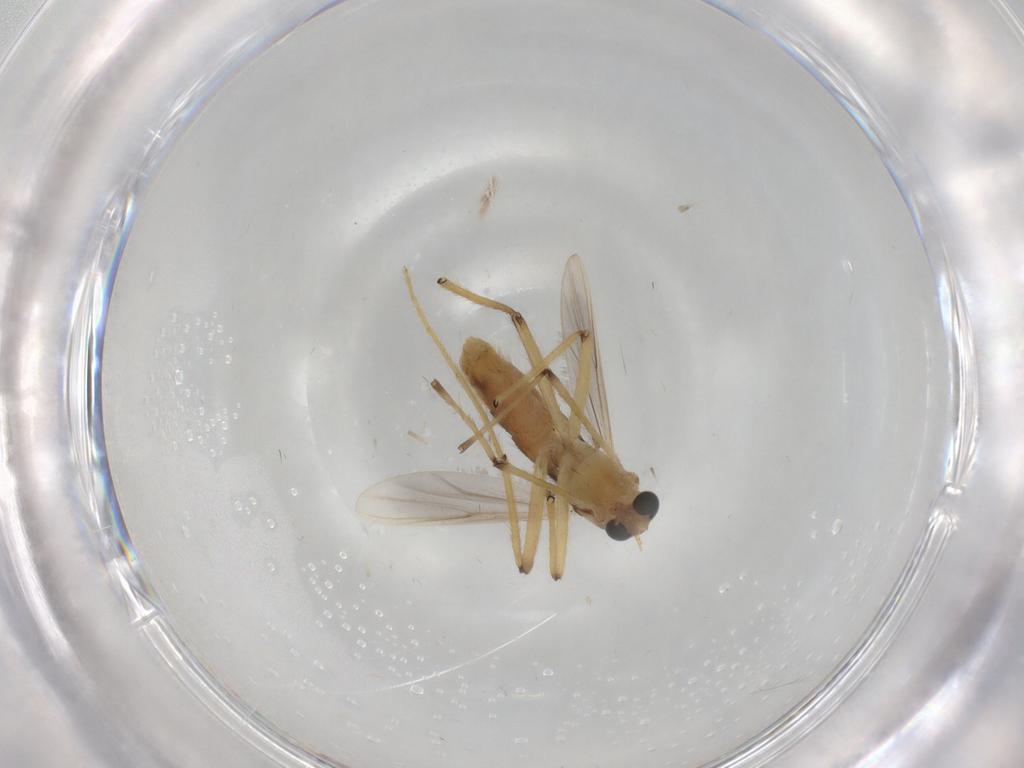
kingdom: Animalia
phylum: Arthropoda
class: Insecta
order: Diptera
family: Chironomidae
